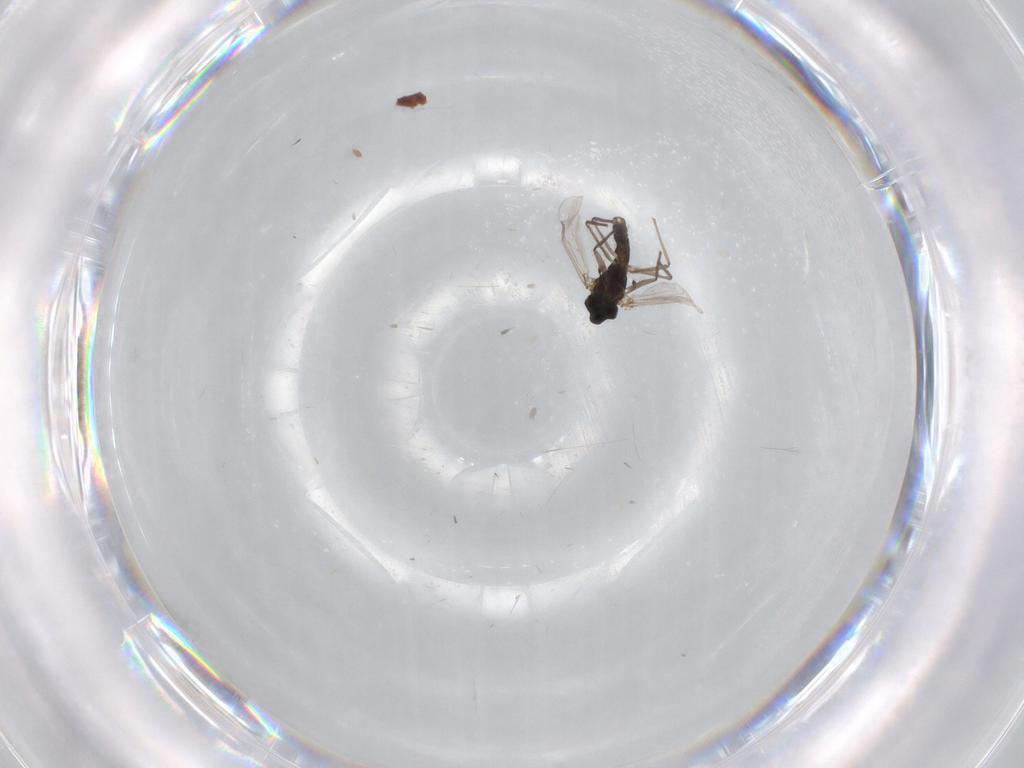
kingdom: Animalia
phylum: Arthropoda
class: Insecta
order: Diptera
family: Chironomidae
